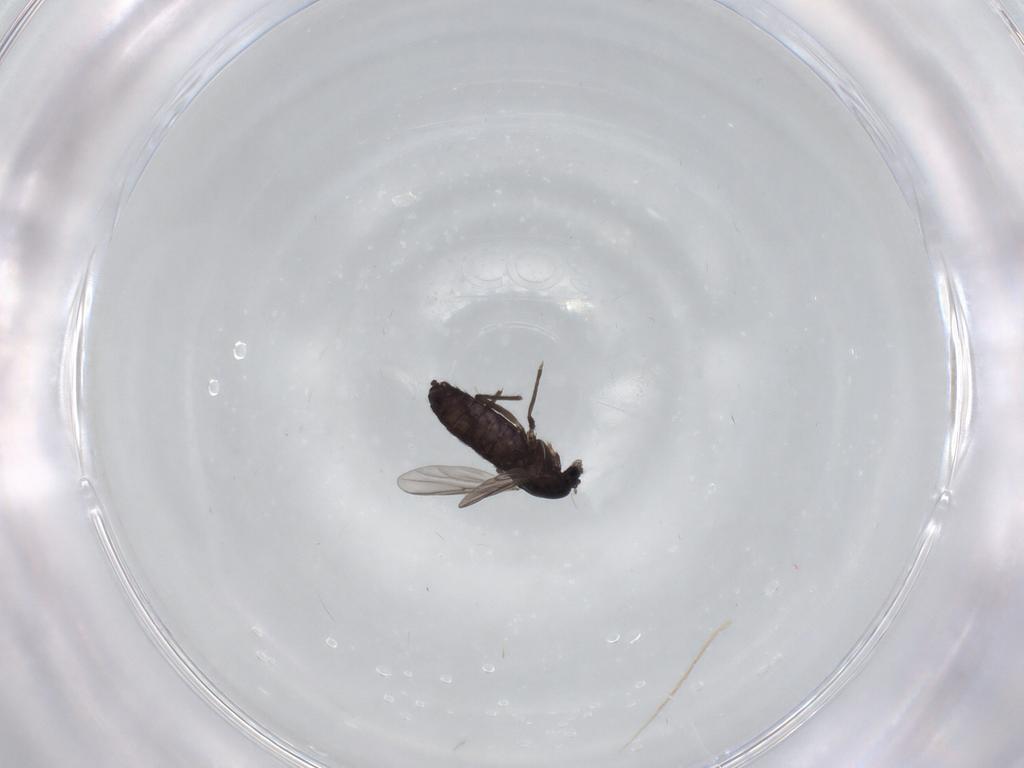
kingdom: Animalia
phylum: Arthropoda
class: Insecta
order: Diptera
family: Chironomidae
